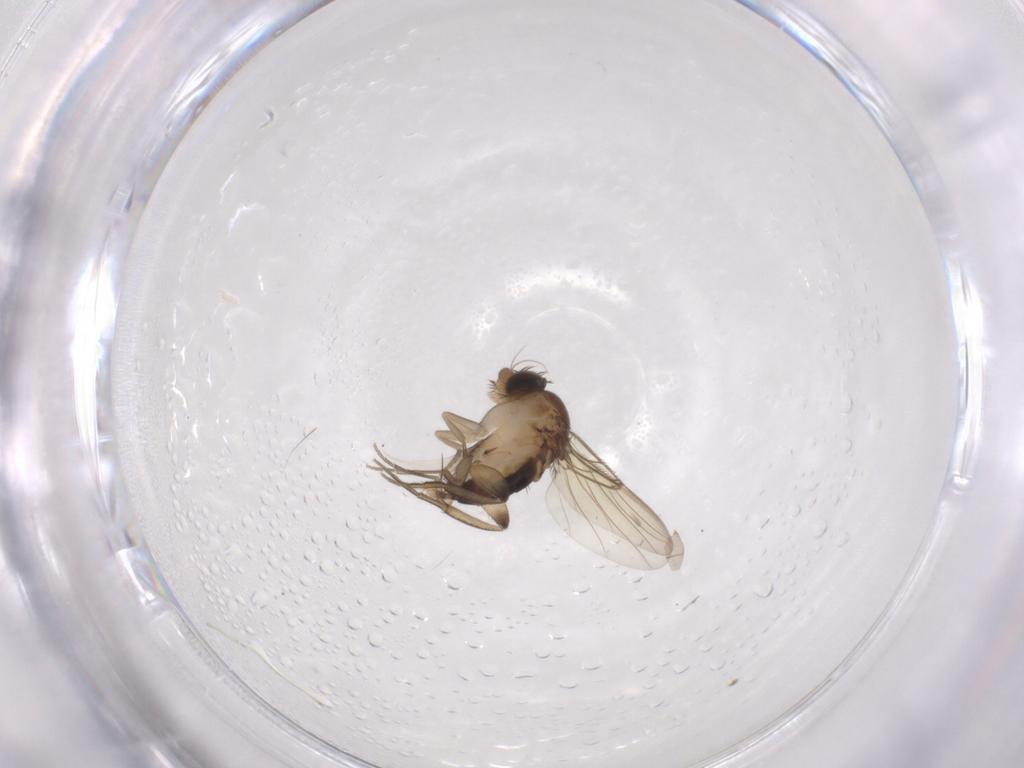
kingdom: Animalia
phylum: Arthropoda
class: Insecta
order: Diptera
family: Phoridae
